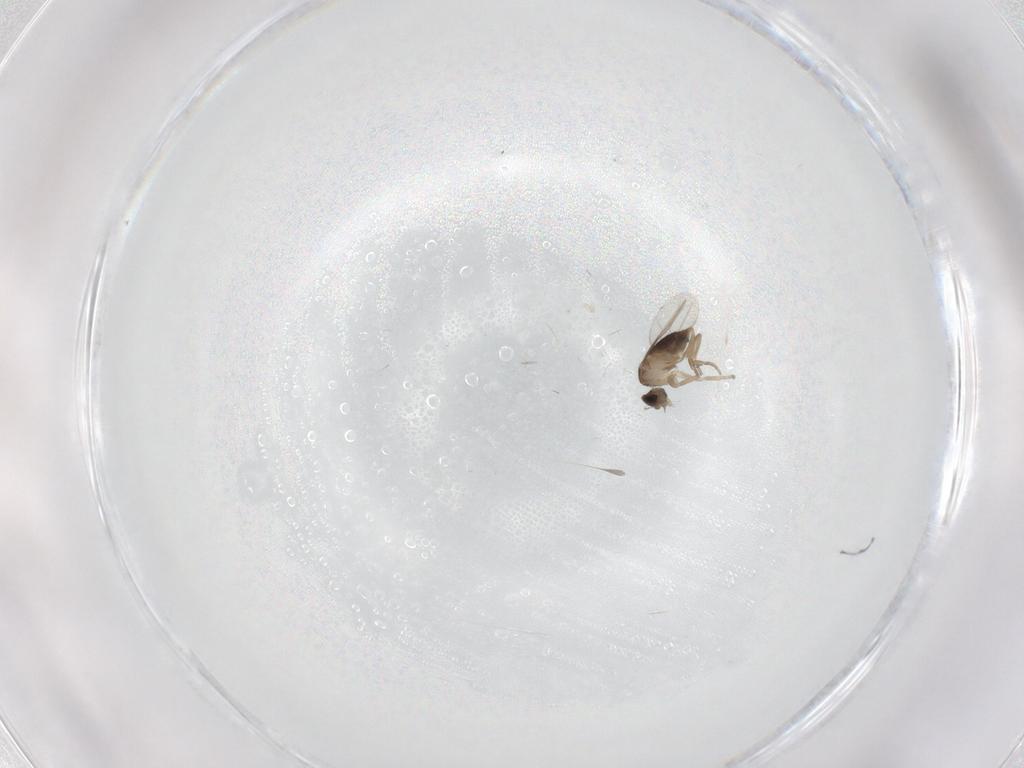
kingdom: Animalia
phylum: Arthropoda
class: Insecta
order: Diptera
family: Phoridae
